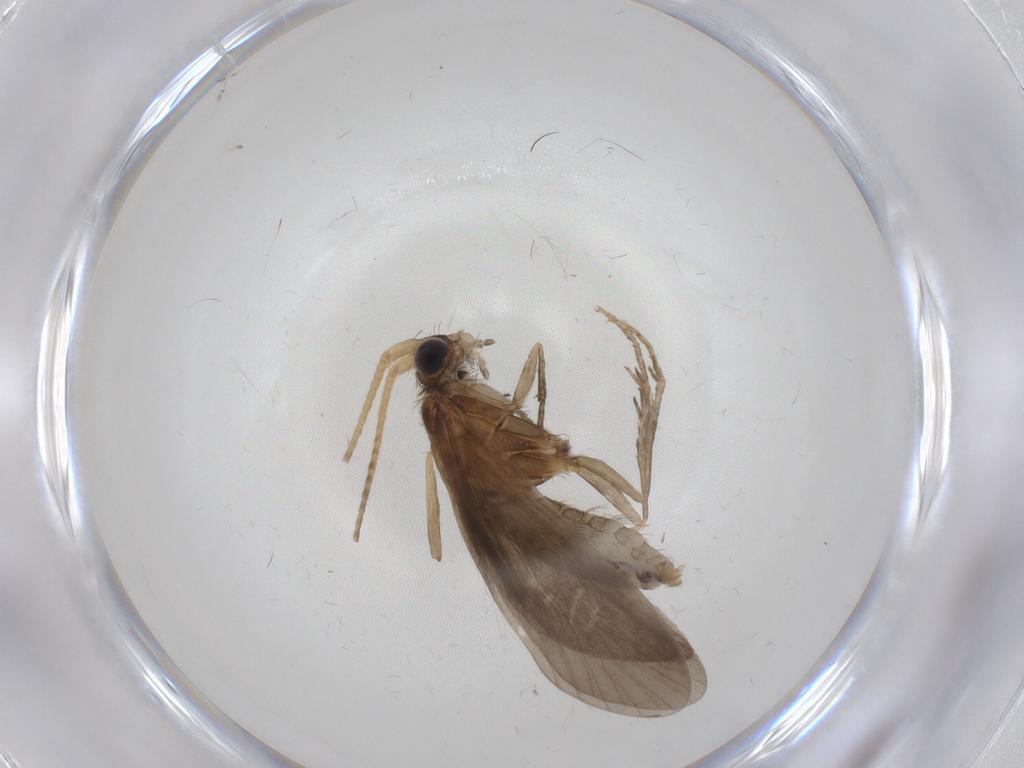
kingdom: Animalia
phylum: Arthropoda
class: Insecta
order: Trichoptera
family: Helicopsychidae
